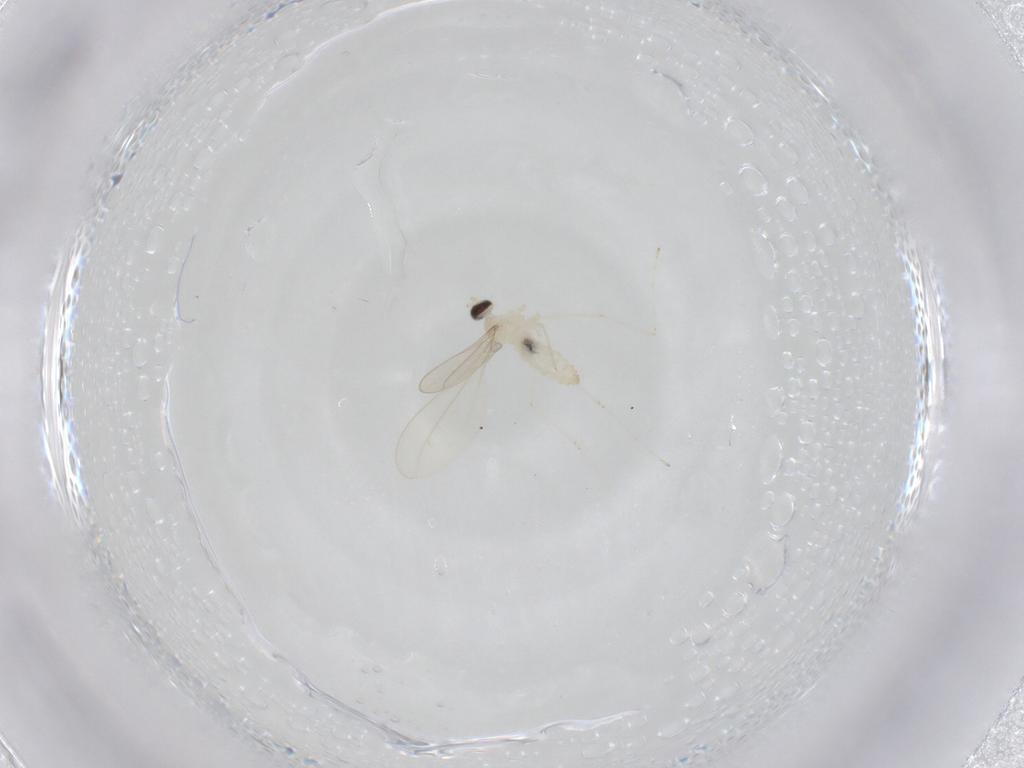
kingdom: Animalia
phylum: Arthropoda
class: Insecta
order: Diptera
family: Cecidomyiidae
